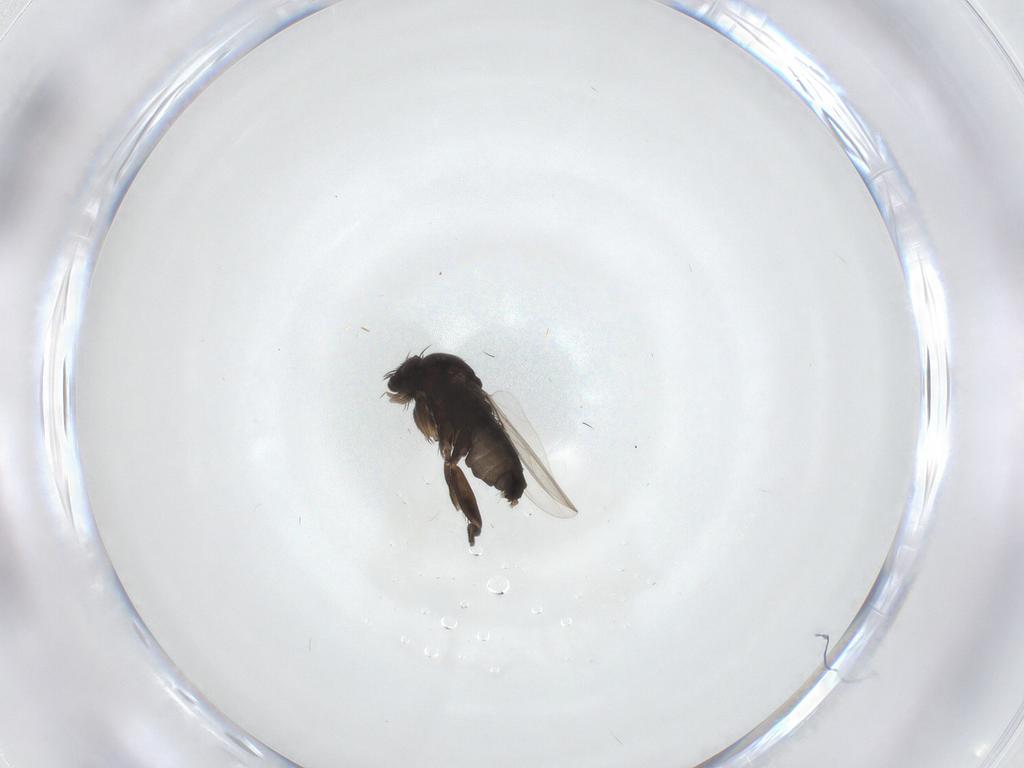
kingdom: Animalia
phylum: Arthropoda
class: Insecta
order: Diptera
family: Phoridae
